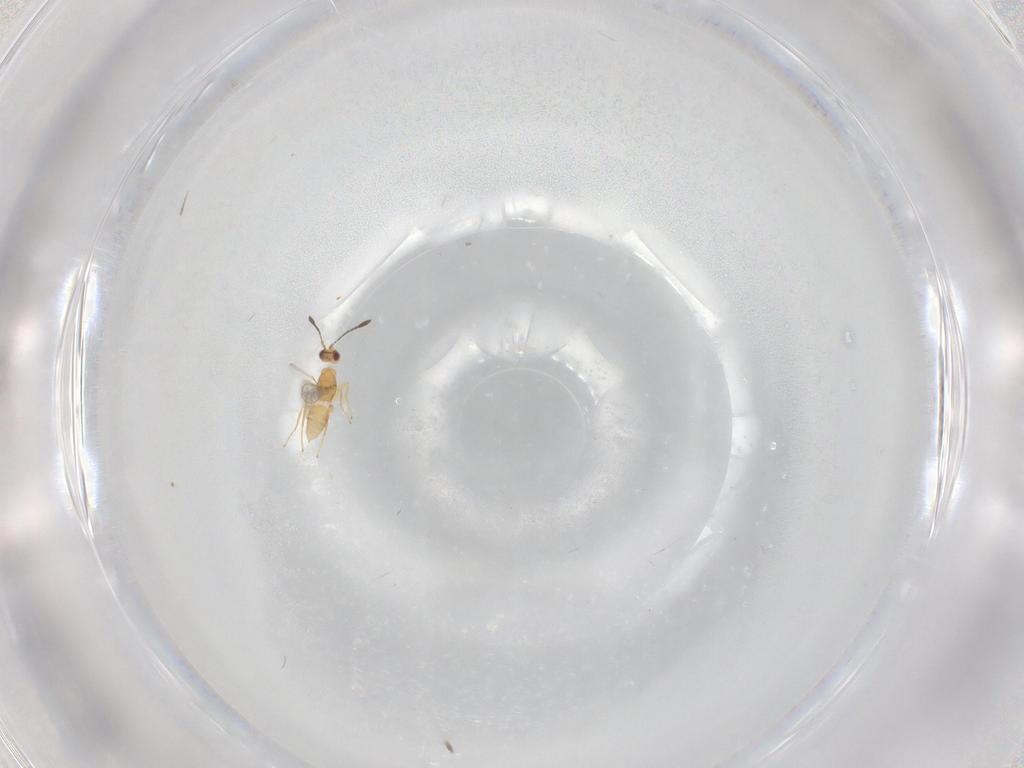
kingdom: Animalia
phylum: Arthropoda
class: Insecta
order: Hymenoptera
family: Mymaridae
